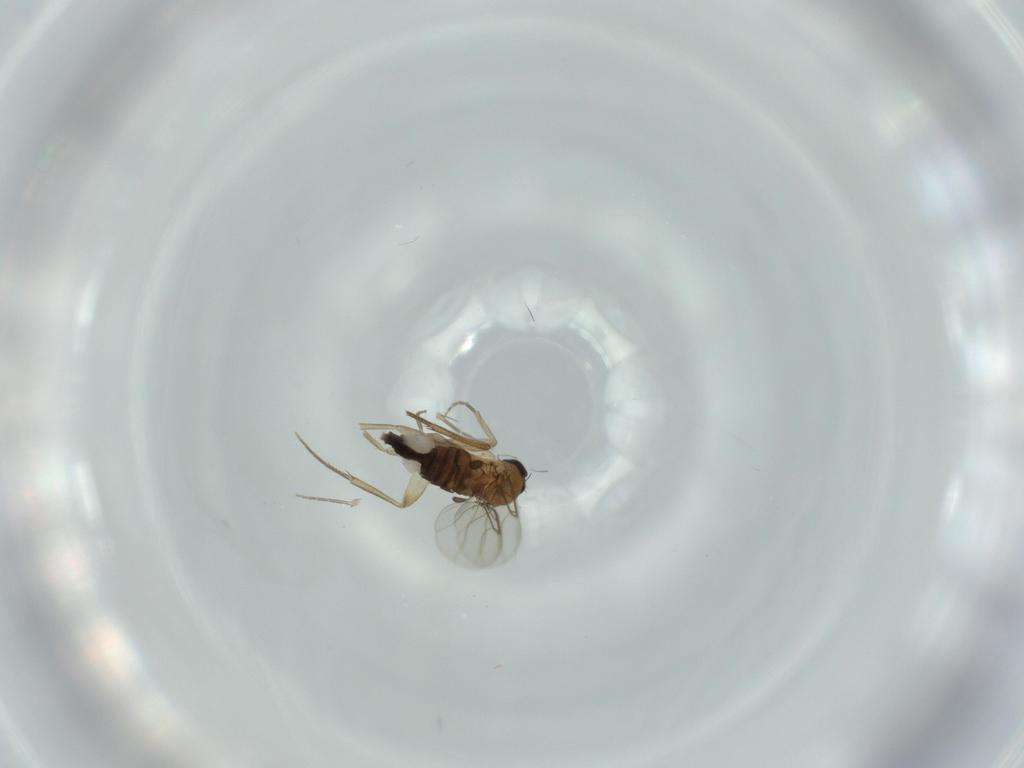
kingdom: Animalia
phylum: Arthropoda
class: Insecta
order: Diptera
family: Phoridae
